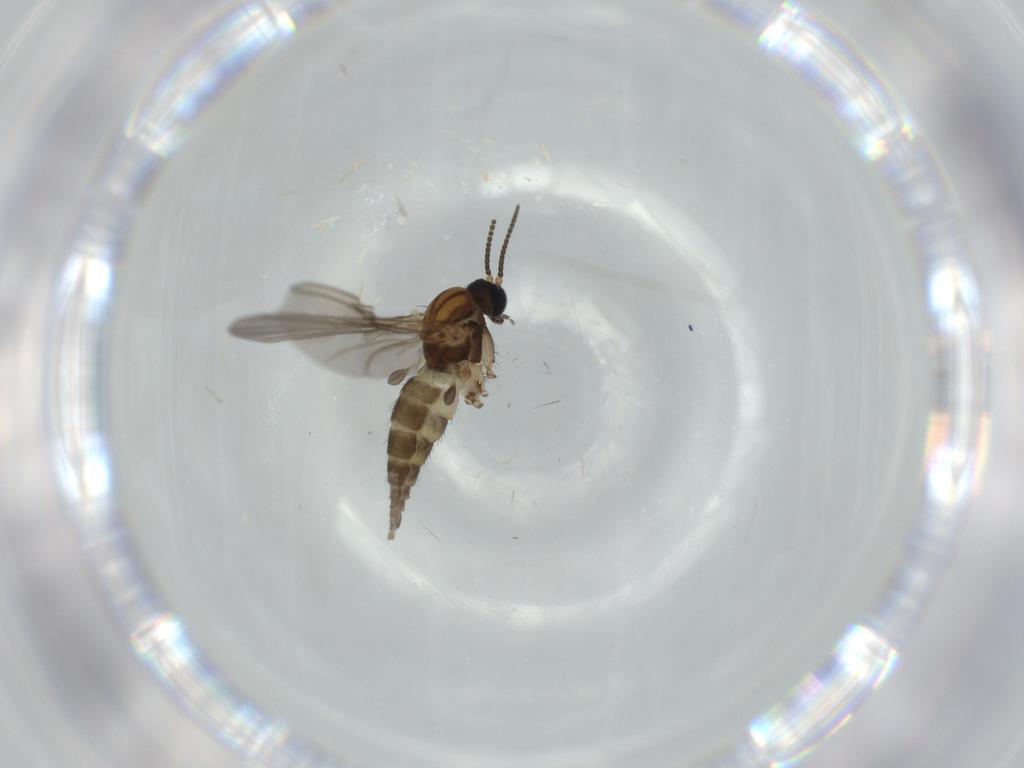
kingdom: Animalia
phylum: Arthropoda
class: Insecta
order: Diptera
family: Sciaridae
